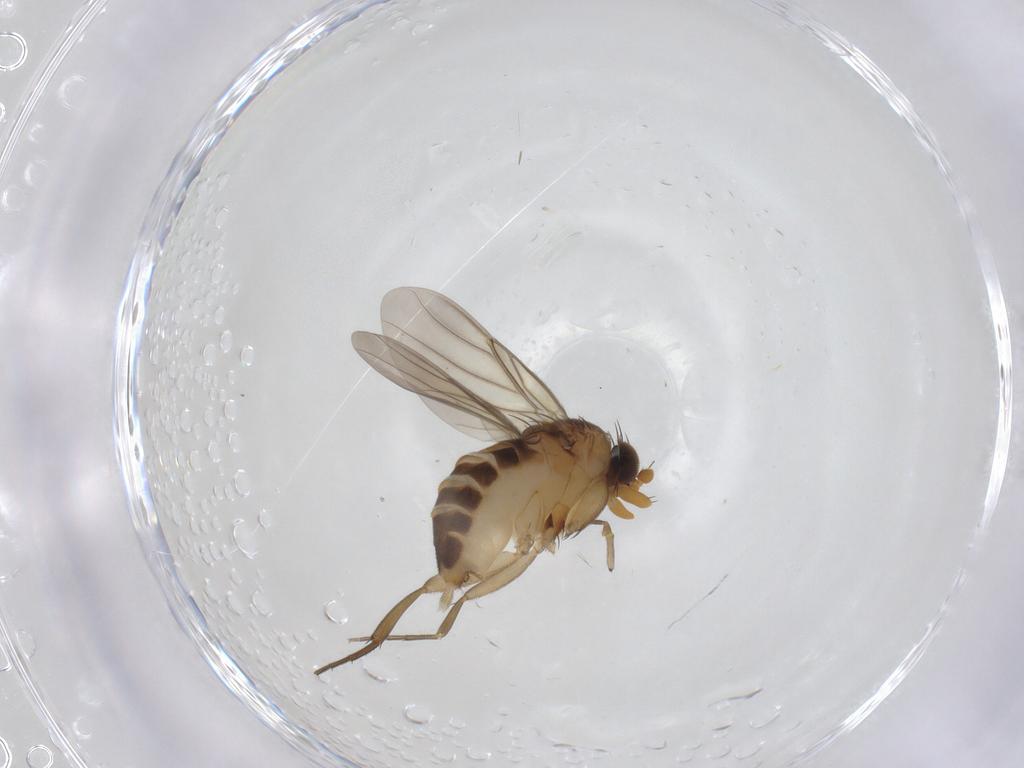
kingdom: Animalia
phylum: Arthropoda
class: Insecta
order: Diptera
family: Phoridae
